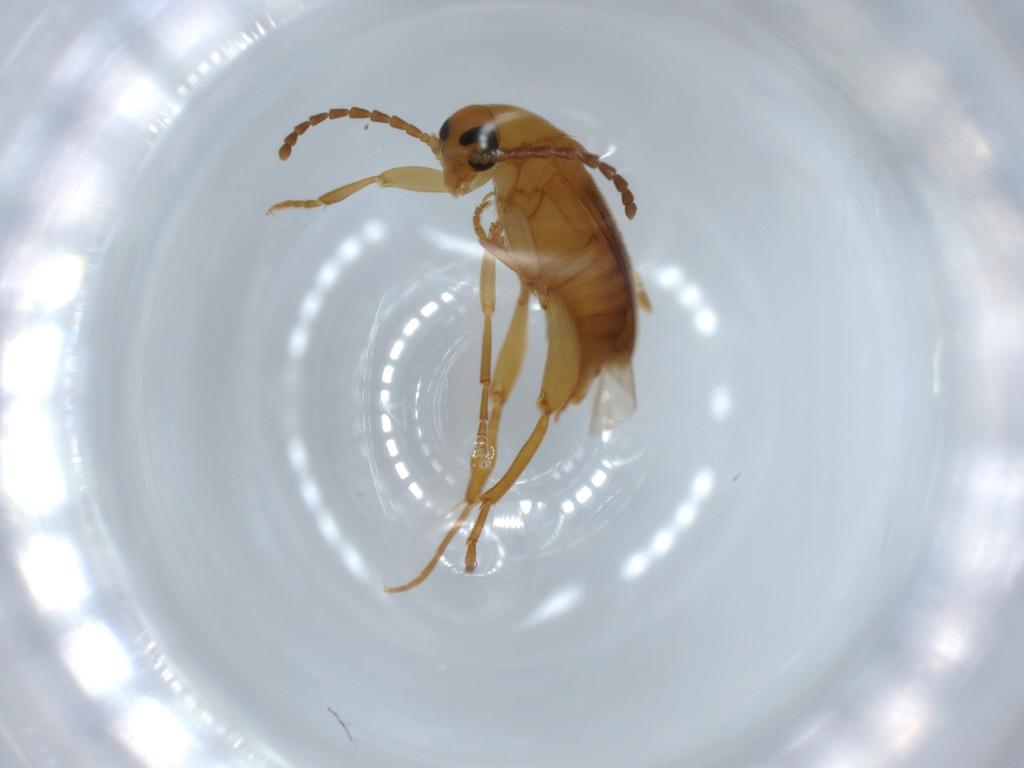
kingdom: Animalia
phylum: Arthropoda
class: Insecta
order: Coleoptera
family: Scraptiidae
